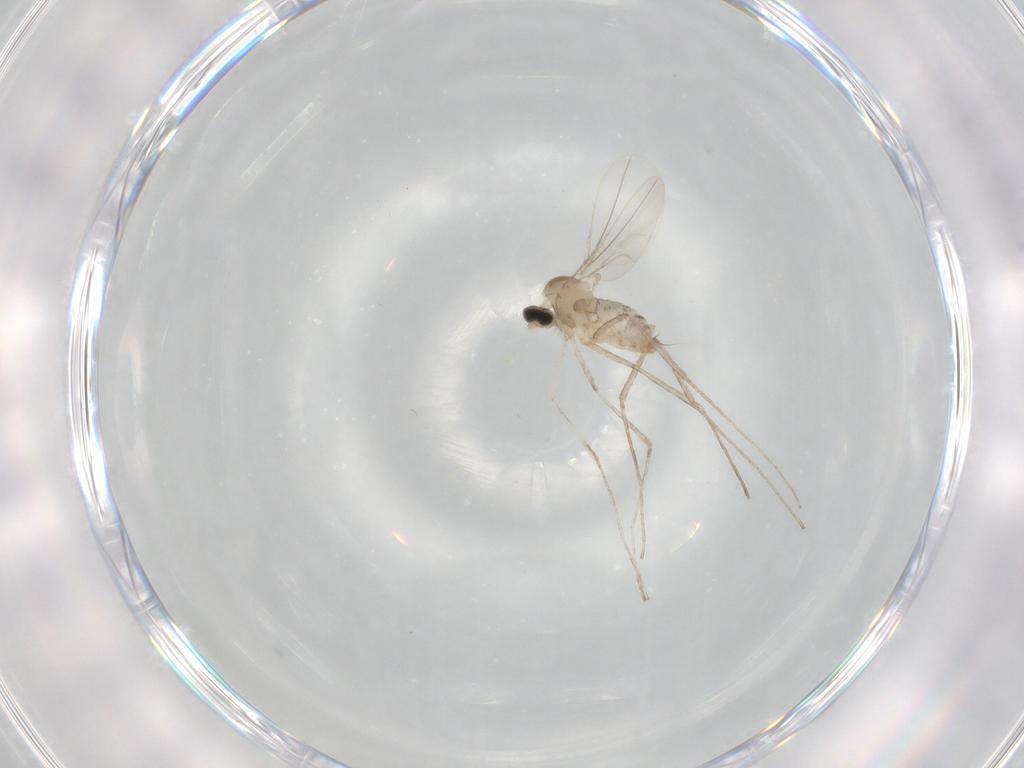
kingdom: Animalia
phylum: Arthropoda
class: Insecta
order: Diptera
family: Cecidomyiidae
